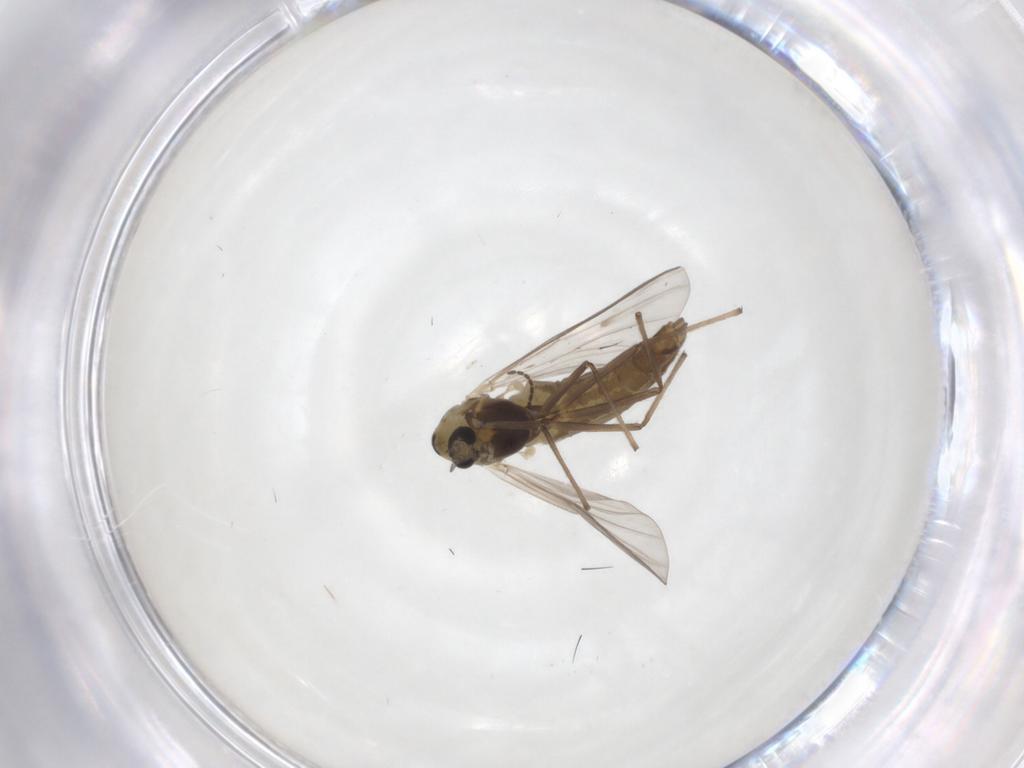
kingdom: Animalia
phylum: Arthropoda
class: Insecta
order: Diptera
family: Chironomidae
